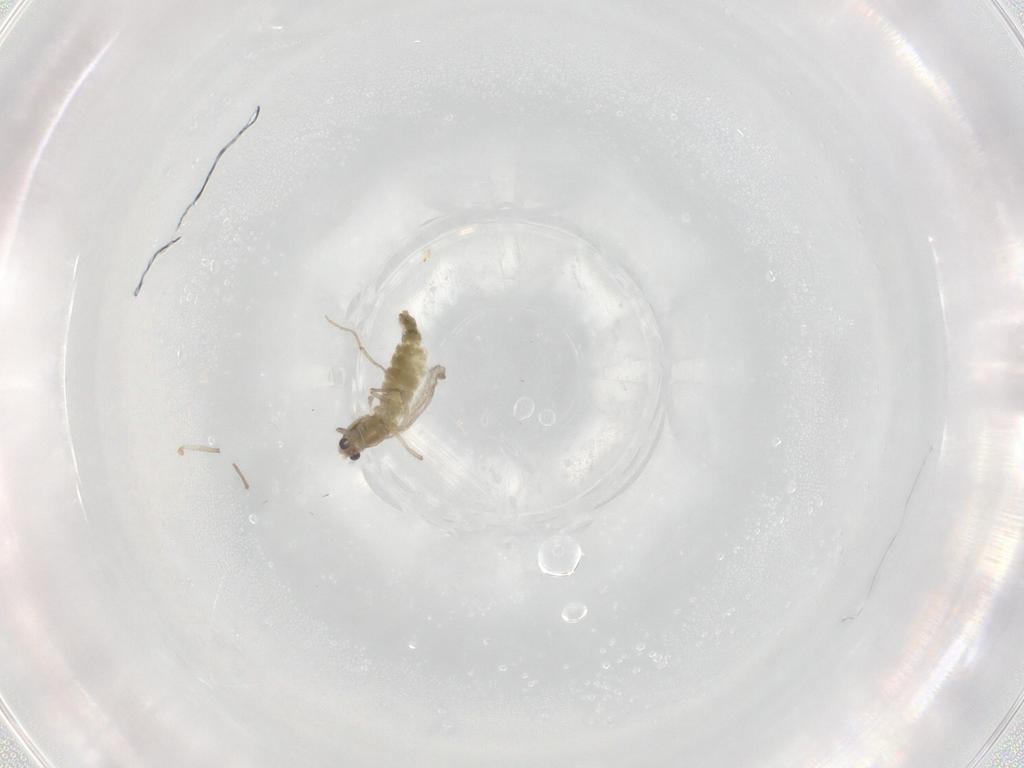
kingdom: Animalia
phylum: Arthropoda
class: Insecta
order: Diptera
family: Cecidomyiidae
